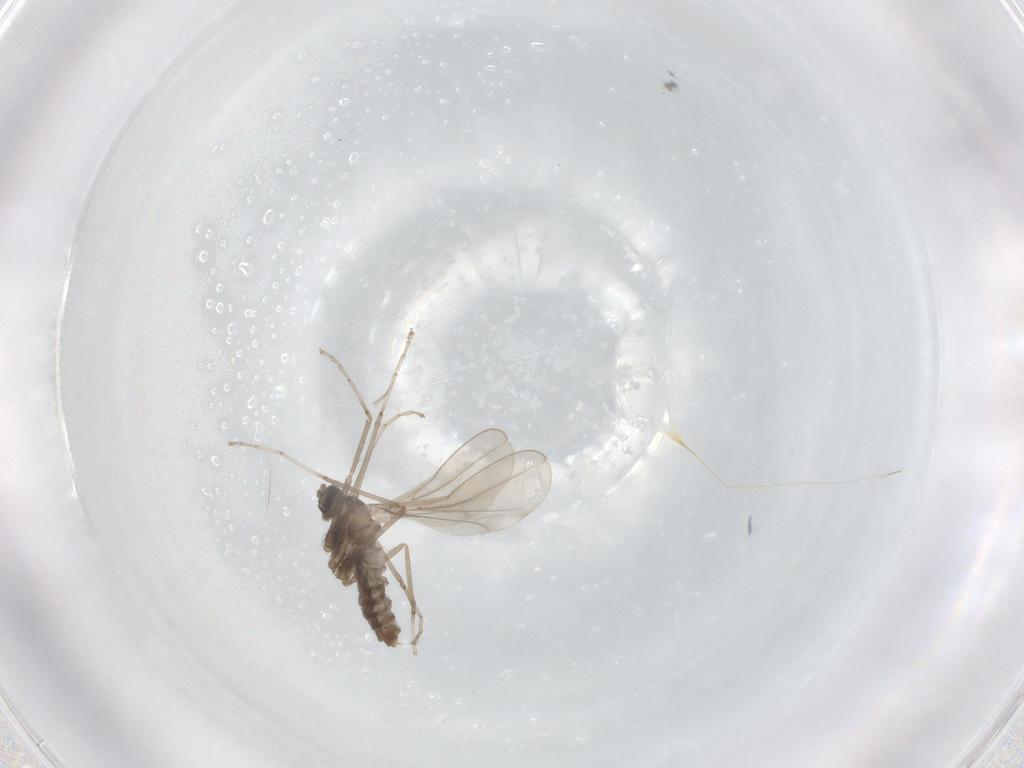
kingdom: Animalia
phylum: Arthropoda
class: Insecta
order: Diptera
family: Cecidomyiidae
